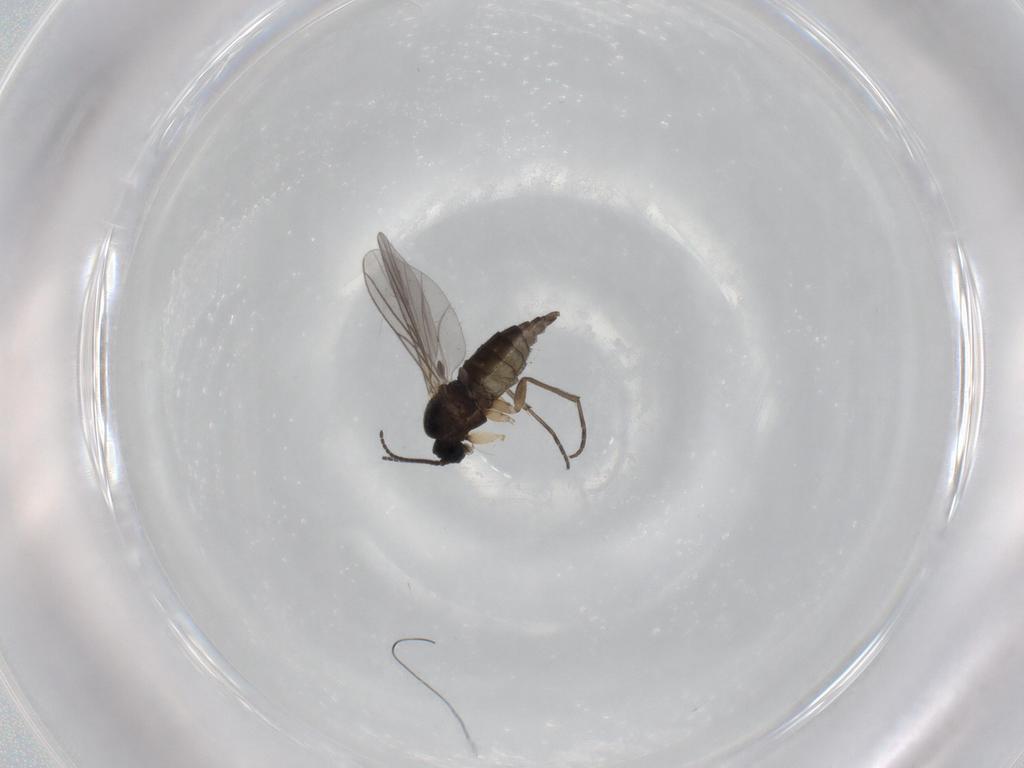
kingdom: Animalia
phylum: Arthropoda
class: Insecta
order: Diptera
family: Sciaridae
